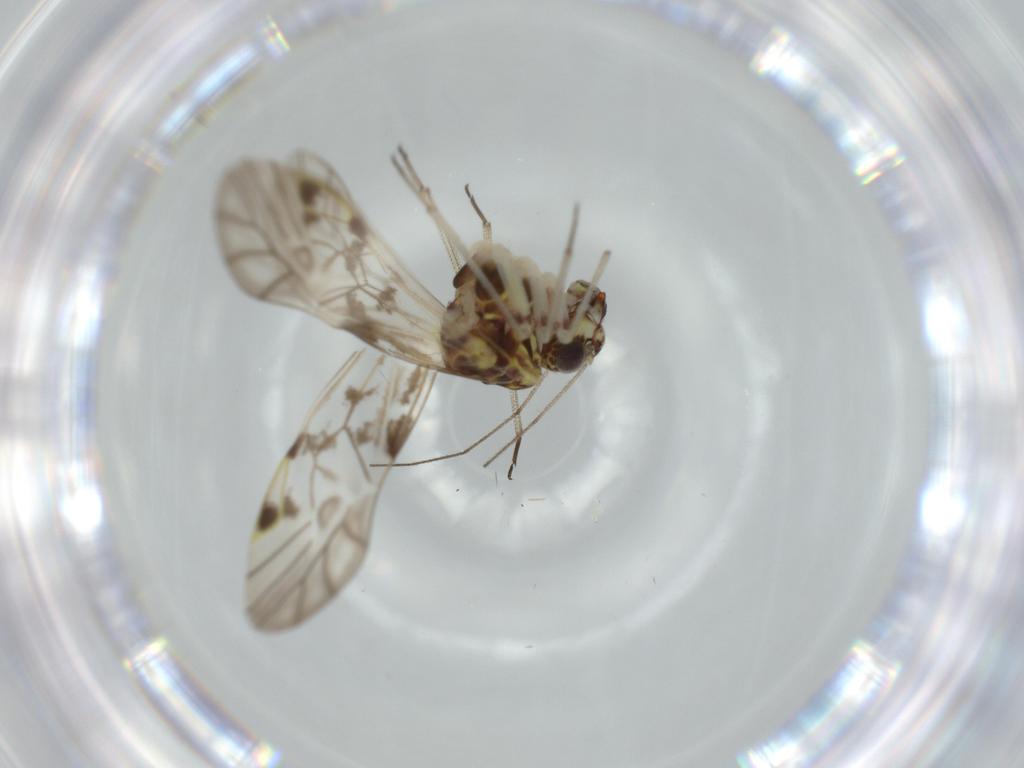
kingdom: Animalia
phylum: Arthropoda
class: Insecta
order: Psocodea
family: Psocidae
